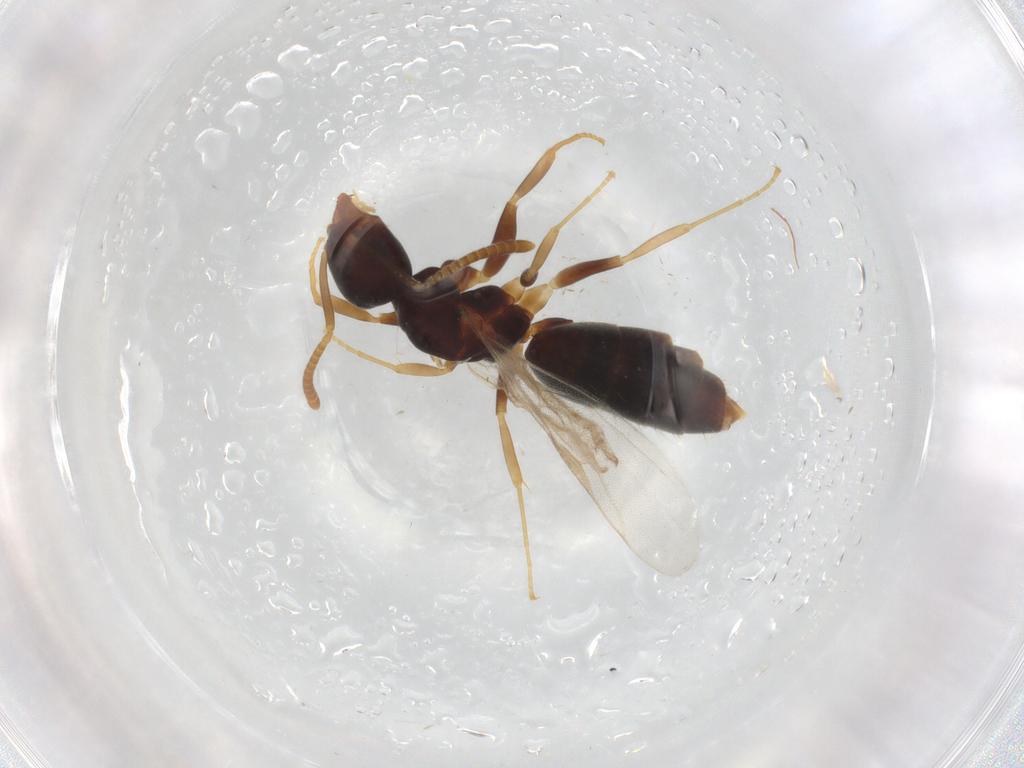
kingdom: Animalia
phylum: Arthropoda
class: Insecta
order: Hymenoptera
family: Formicidae
